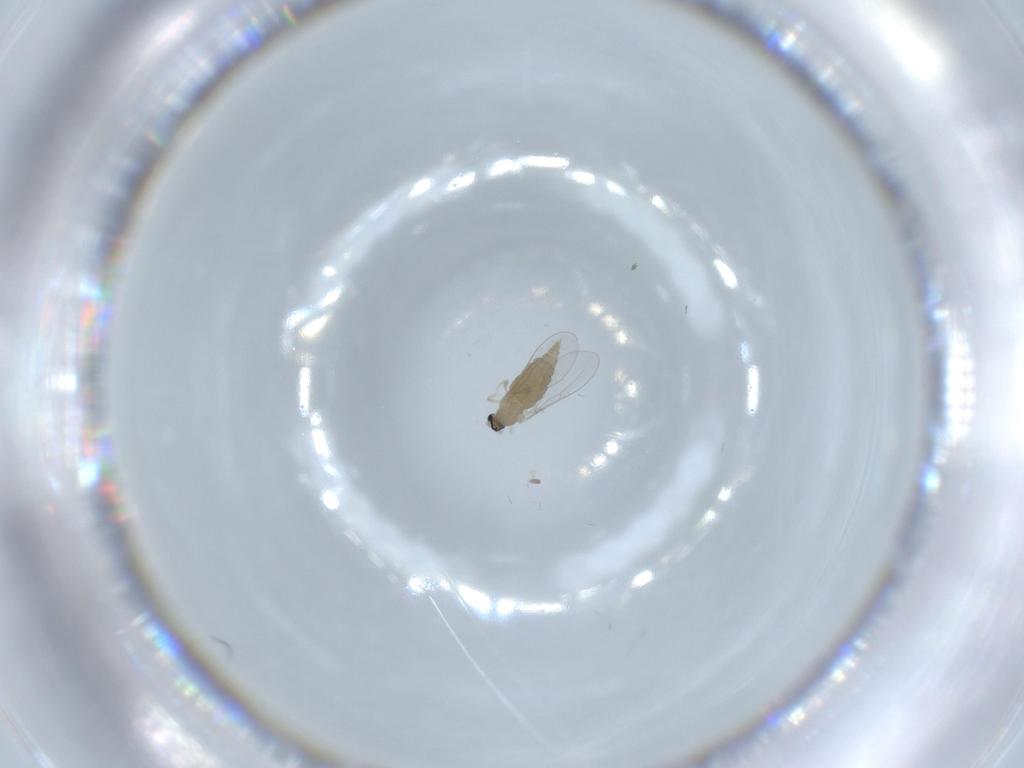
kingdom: Animalia
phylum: Arthropoda
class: Insecta
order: Diptera
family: Cecidomyiidae
